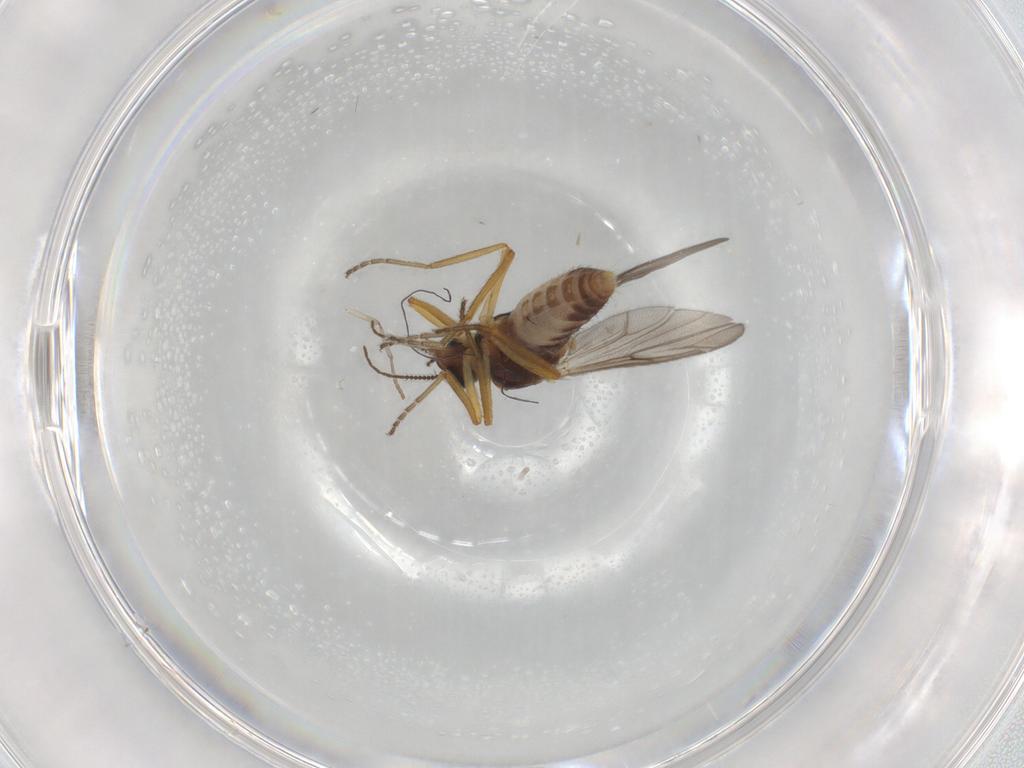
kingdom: Animalia
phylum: Arthropoda
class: Insecta
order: Diptera
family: Ceratopogonidae
